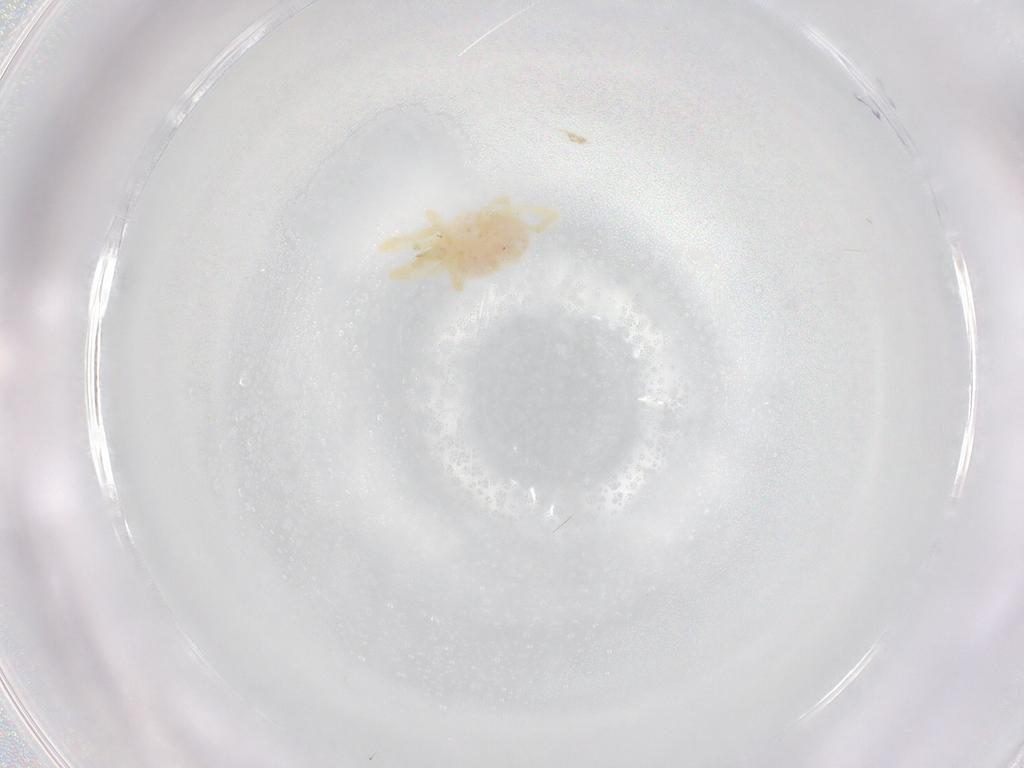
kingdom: Animalia
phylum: Arthropoda
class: Arachnida
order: Trombidiformes
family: Erythraeidae
